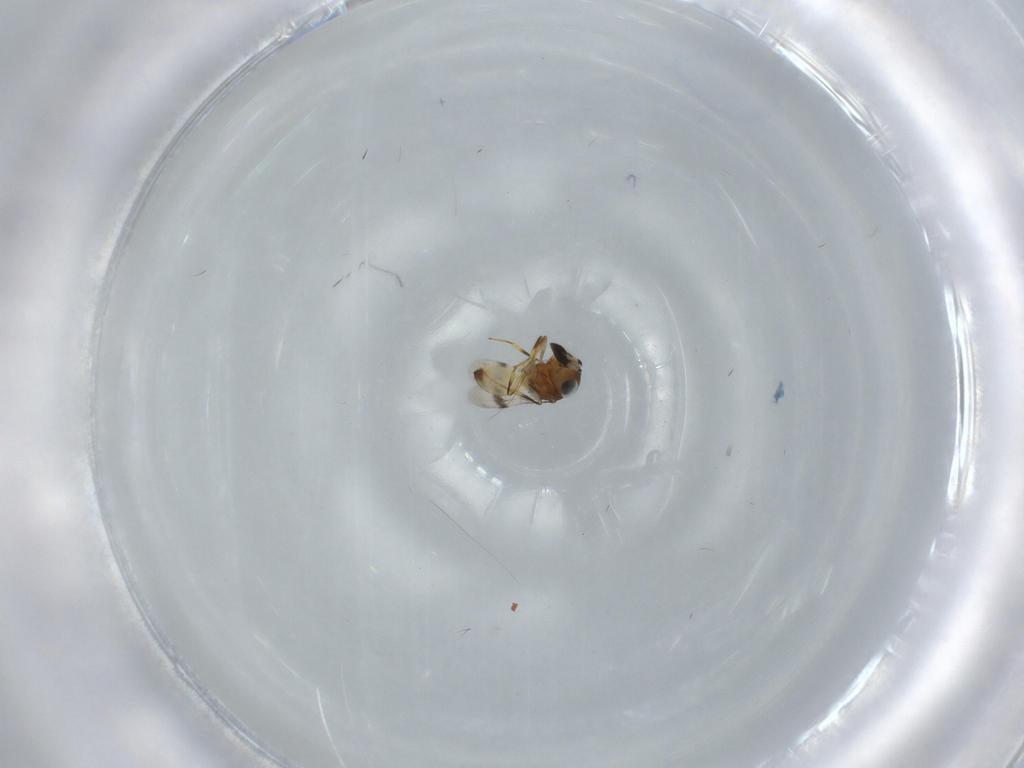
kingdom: Animalia
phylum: Arthropoda
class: Arachnida
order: Araneae
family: Pholcidae
